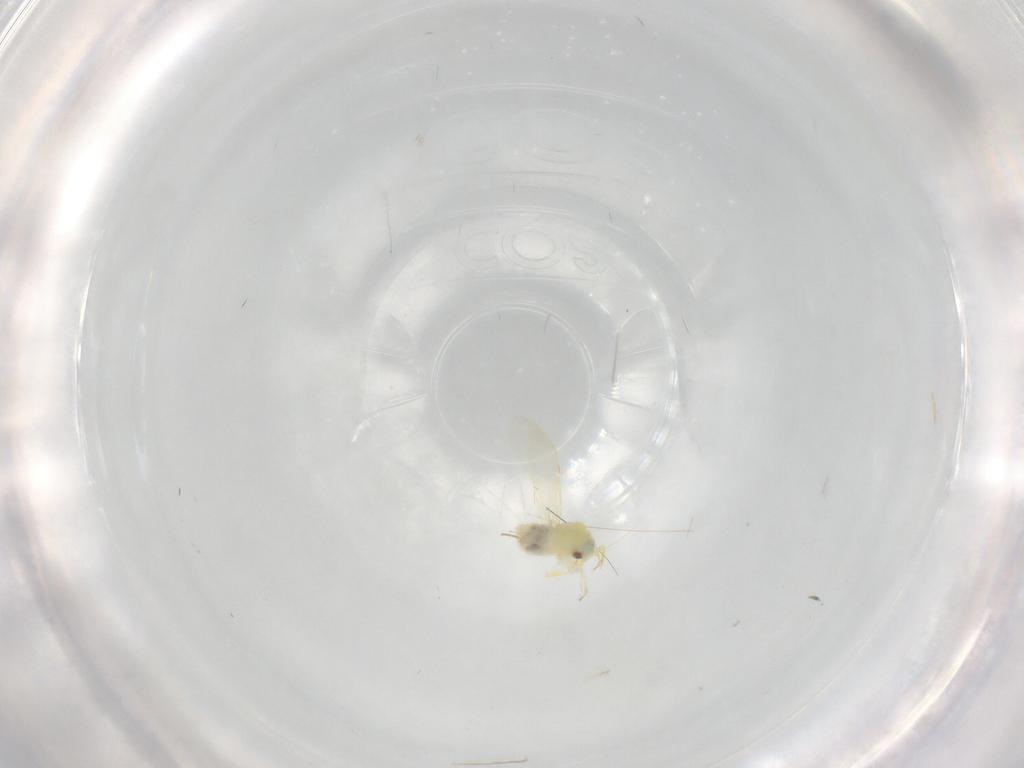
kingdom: Animalia
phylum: Arthropoda
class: Insecta
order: Hemiptera
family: Aleyrodidae
